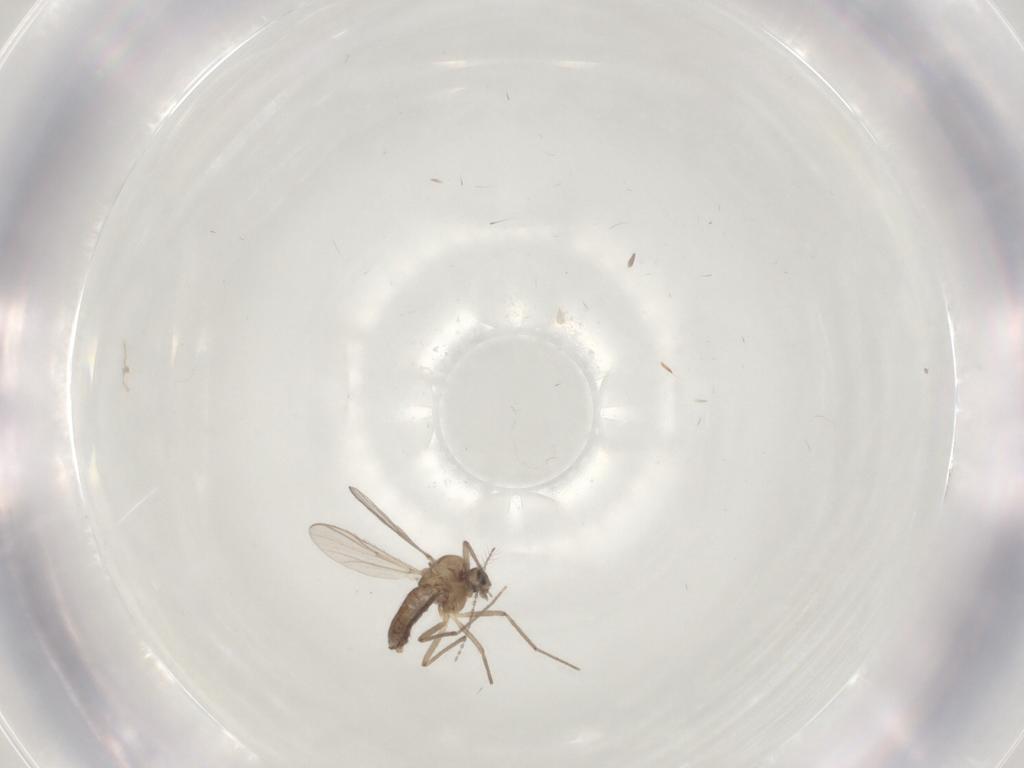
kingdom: Animalia
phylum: Arthropoda
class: Insecta
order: Diptera
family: Chironomidae
